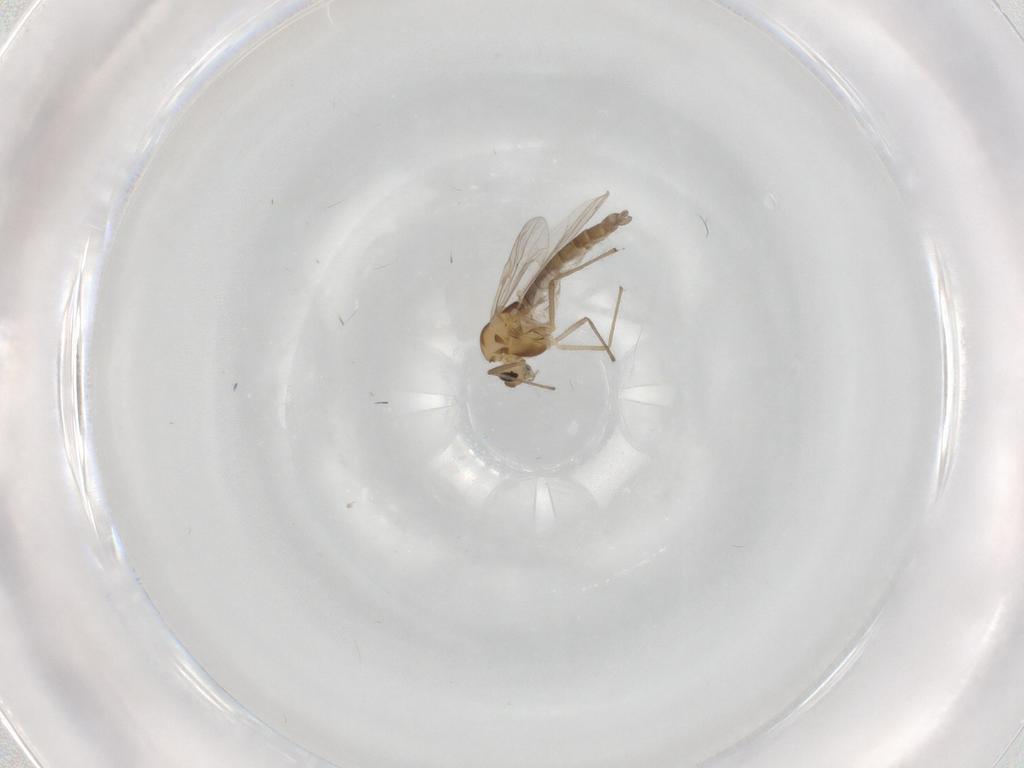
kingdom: Animalia
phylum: Arthropoda
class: Insecta
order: Diptera
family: Chironomidae
